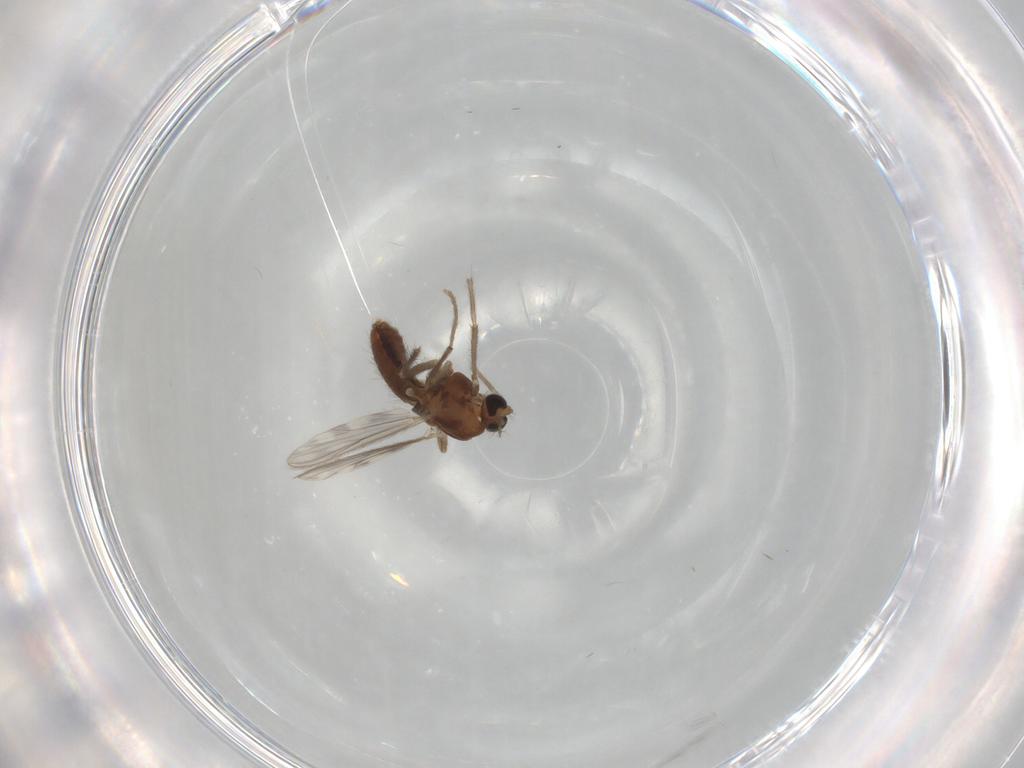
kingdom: Animalia
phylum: Arthropoda
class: Insecta
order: Diptera
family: Chironomidae
